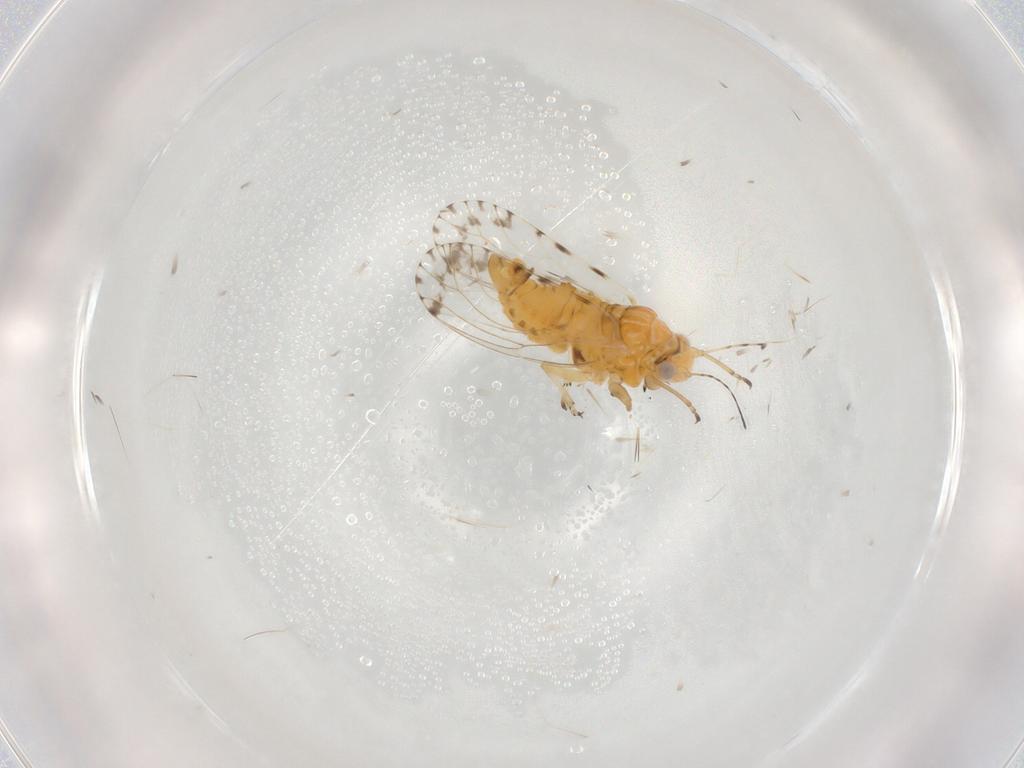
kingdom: Animalia
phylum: Arthropoda
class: Insecta
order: Hemiptera
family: Psyllidae
